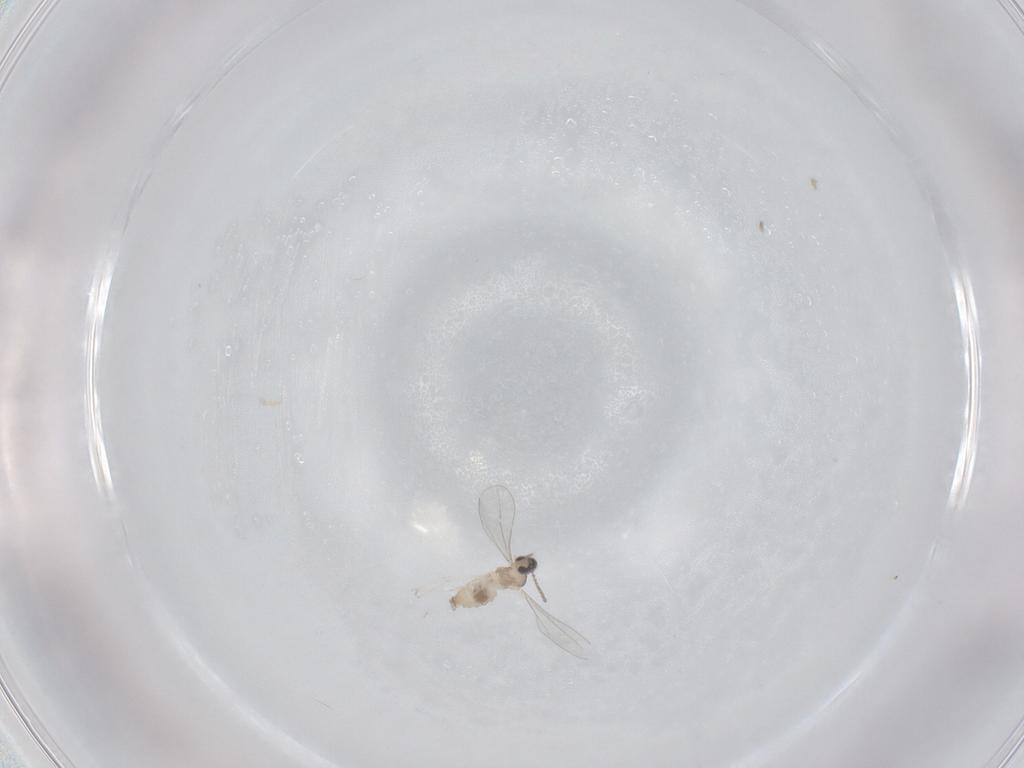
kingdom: Animalia
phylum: Arthropoda
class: Insecta
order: Diptera
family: Cecidomyiidae
